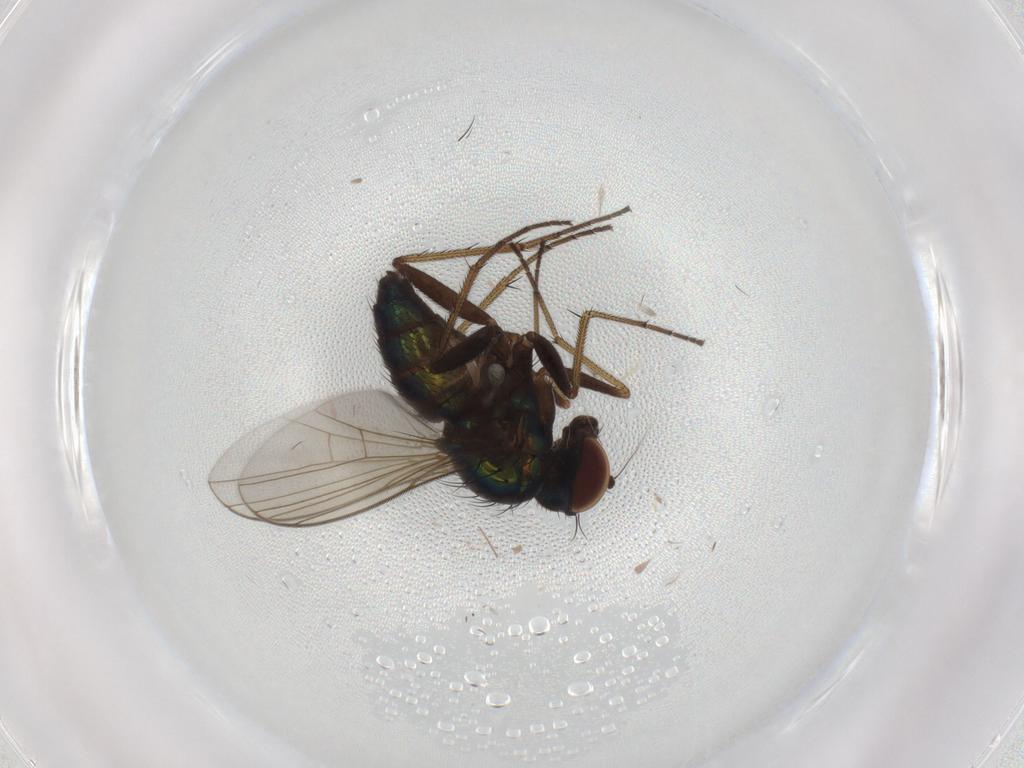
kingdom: Animalia
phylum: Arthropoda
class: Insecta
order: Diptera
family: Dolichopodidae
